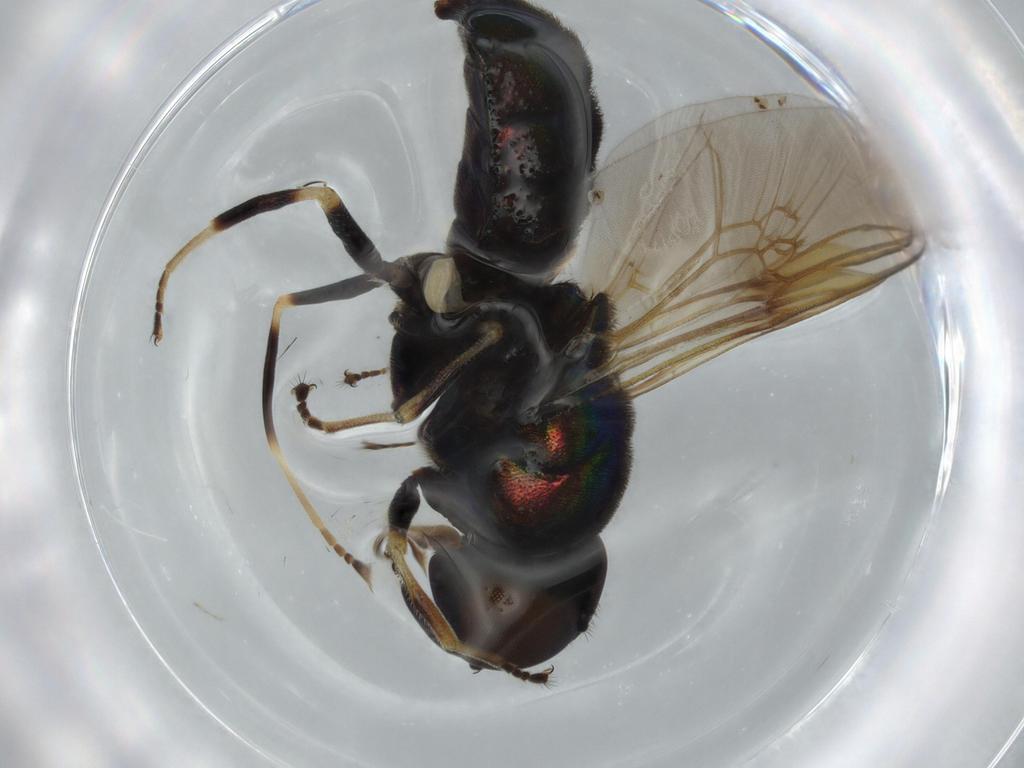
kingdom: Animalia
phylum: Arthropoda
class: Insecta
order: Diptera
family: Stratiomyidae
